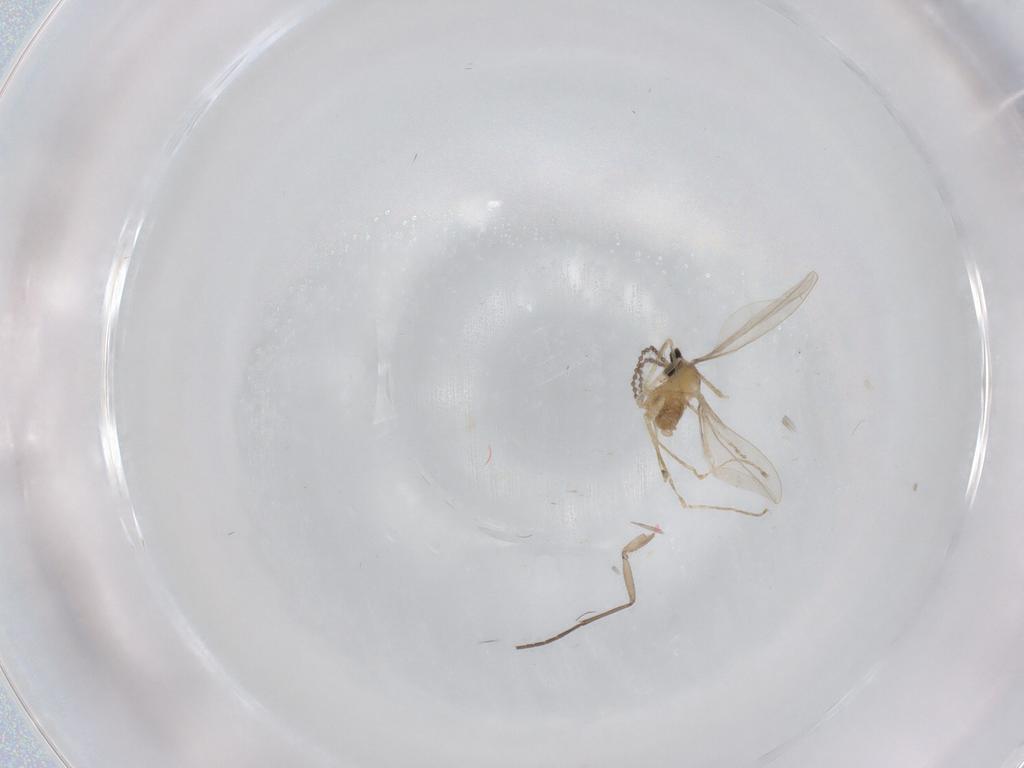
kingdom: Animalia
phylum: Arthropoda
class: Insecta
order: Diptera
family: Cecidomyiidae
